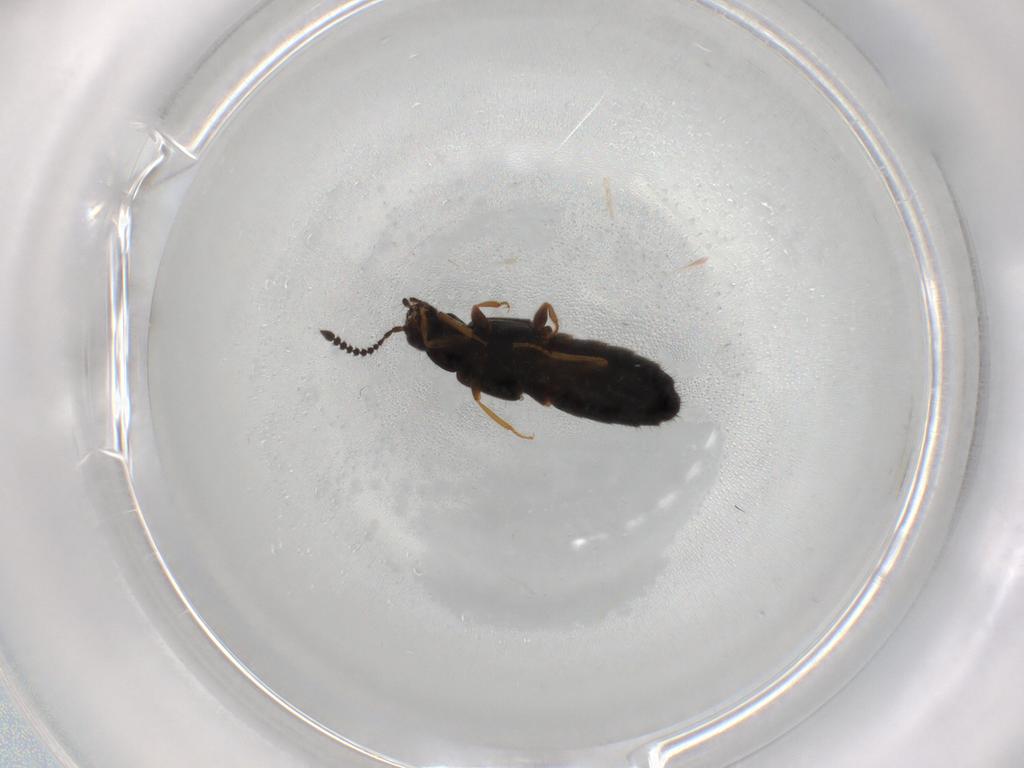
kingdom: Animalia
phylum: Arthropoda
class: Insecta
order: Coleoptera
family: Staphylinidae
